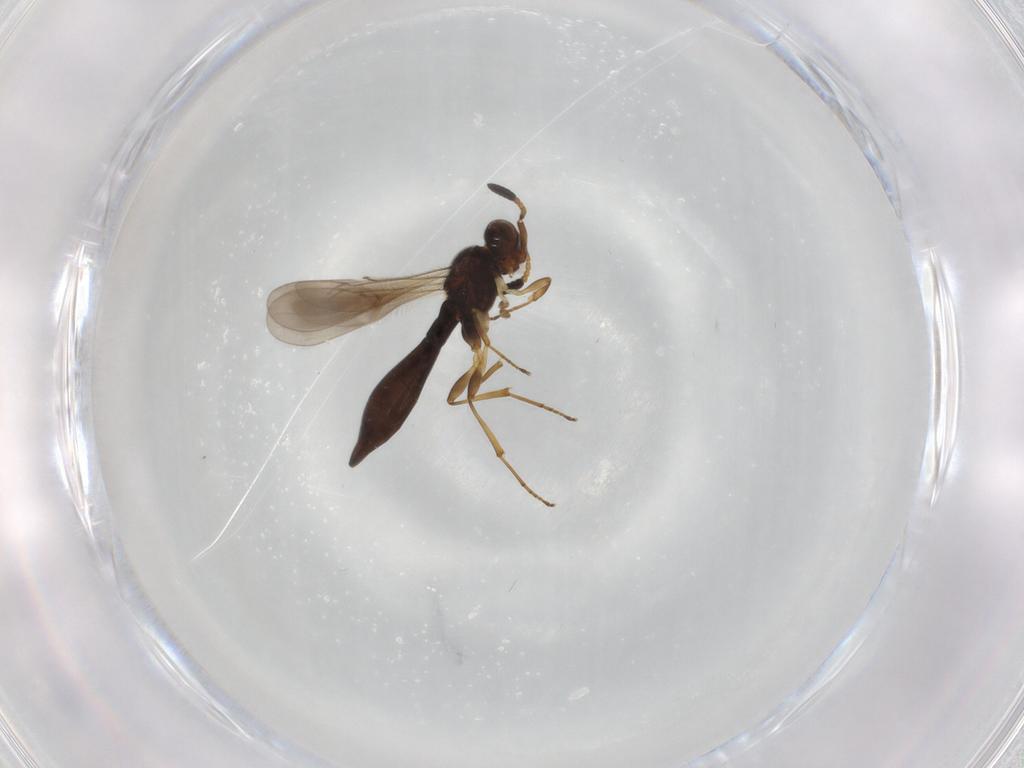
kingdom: Animalia
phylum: Arthropoda
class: Insecta
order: Hymenoptera
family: Scelionidae
